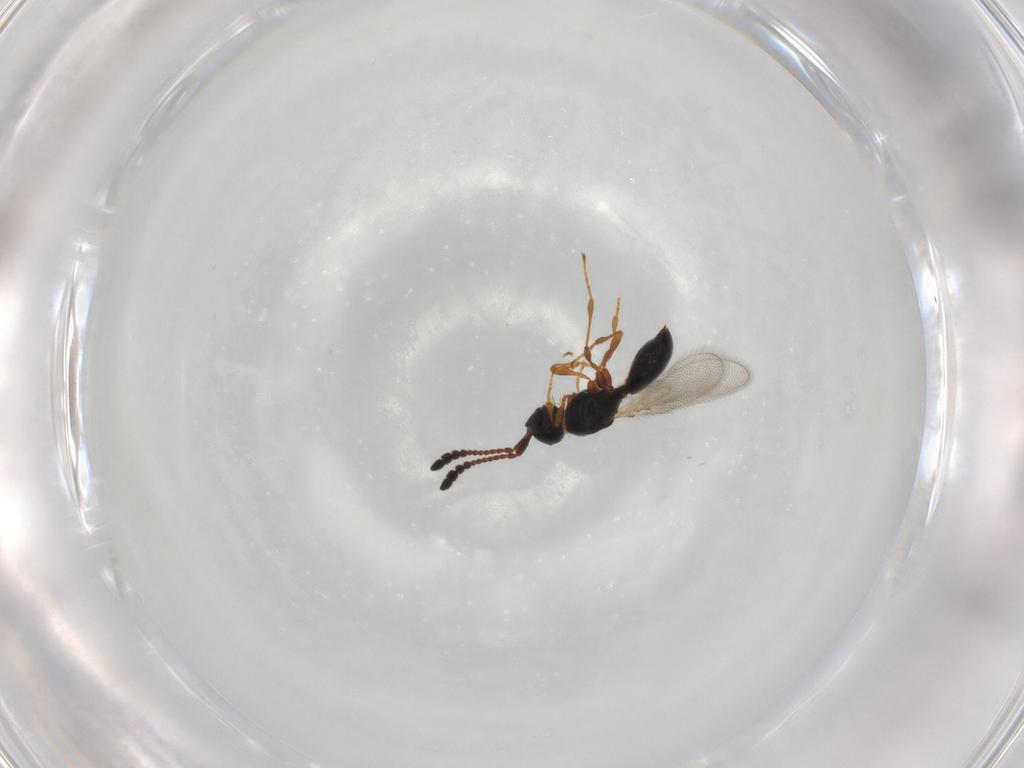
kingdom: Animalia
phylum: Arthropoda
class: Insecta
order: Hymenoptera
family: Diapriidae
